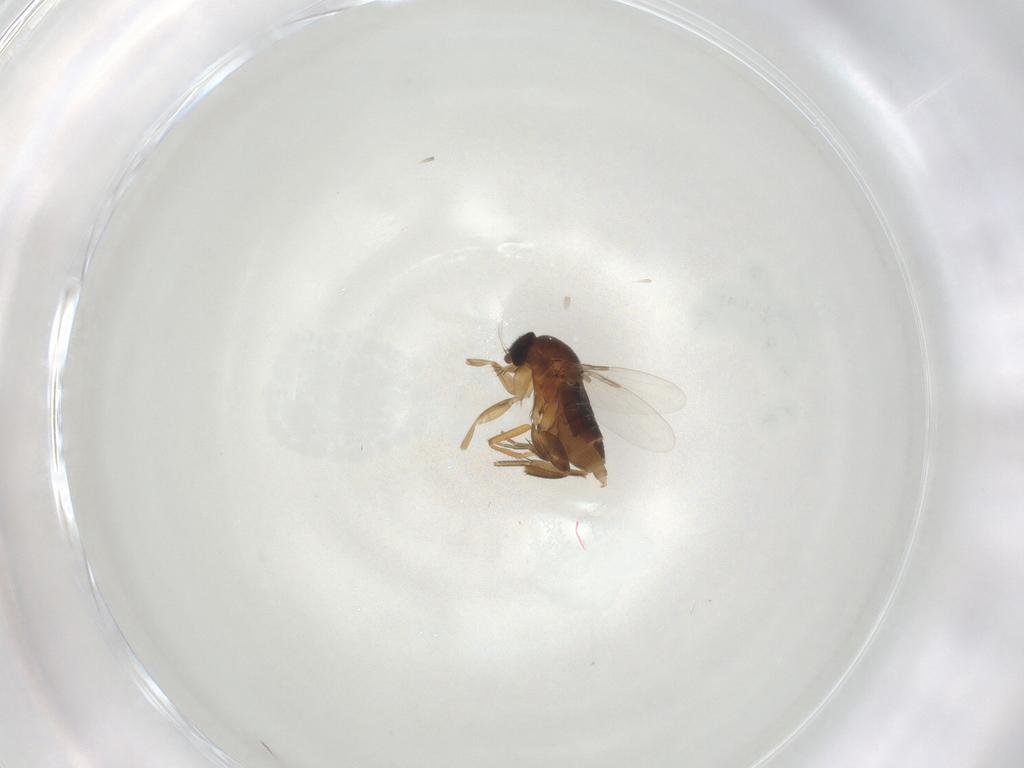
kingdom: Animalia
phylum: Arthropoda
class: Insecta
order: Diptera
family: Phoridae
